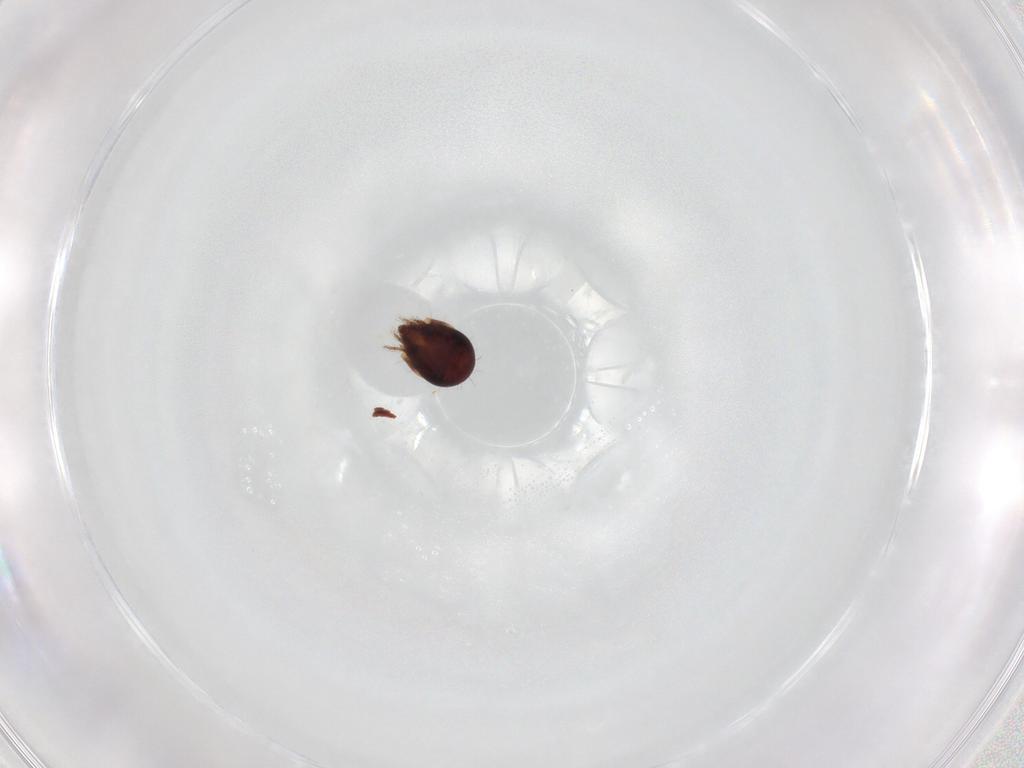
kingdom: Animalia
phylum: Arthropoda
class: Arachnida
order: Sarcoptiformes
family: Humerobatidae
